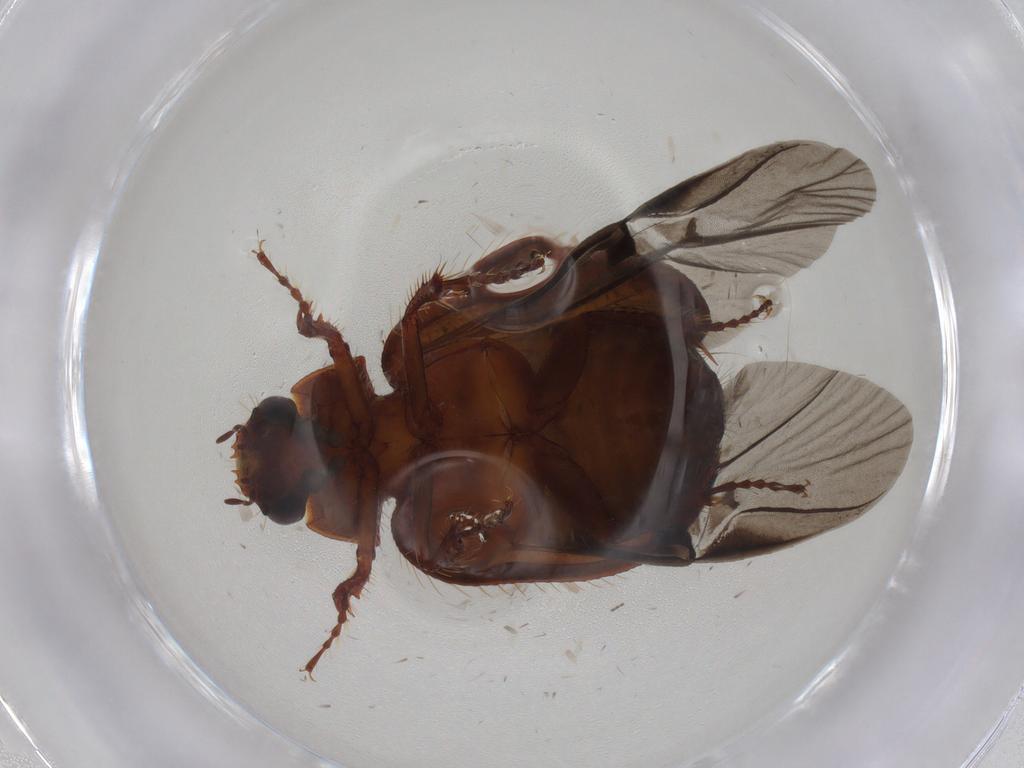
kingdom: Animalia
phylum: Arthropoda
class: Insecta
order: Coleoptera
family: Hybosoridae
